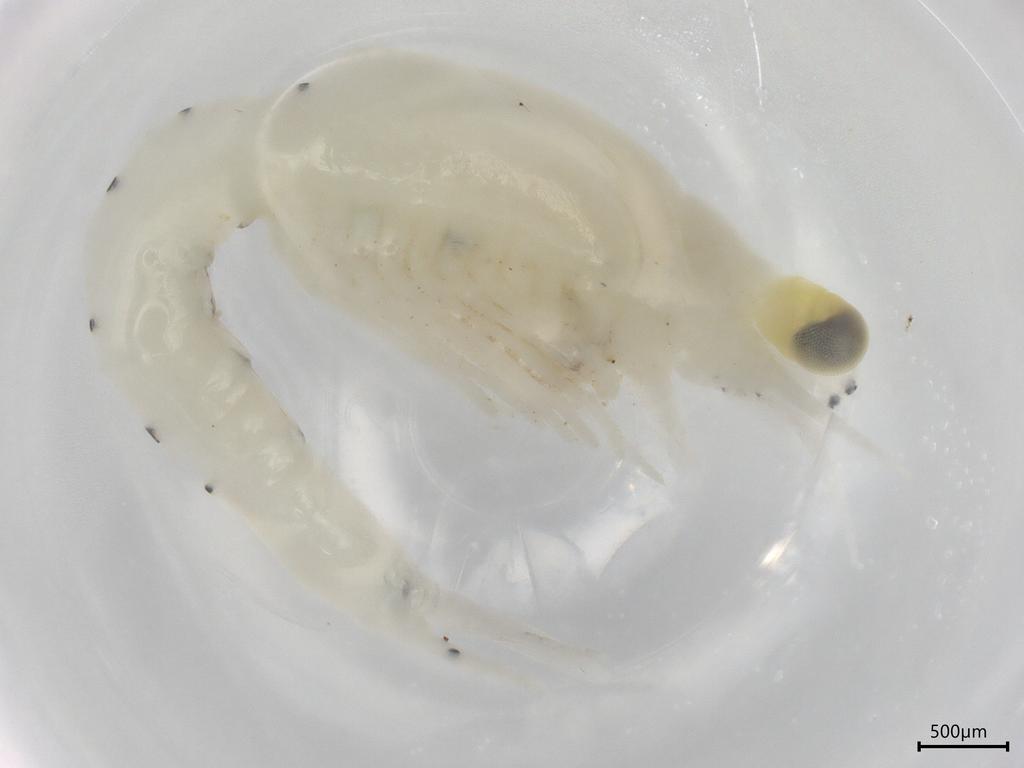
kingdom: Animalia
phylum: Arthropoda
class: Malacostraca
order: Mysida
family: Mysidae
